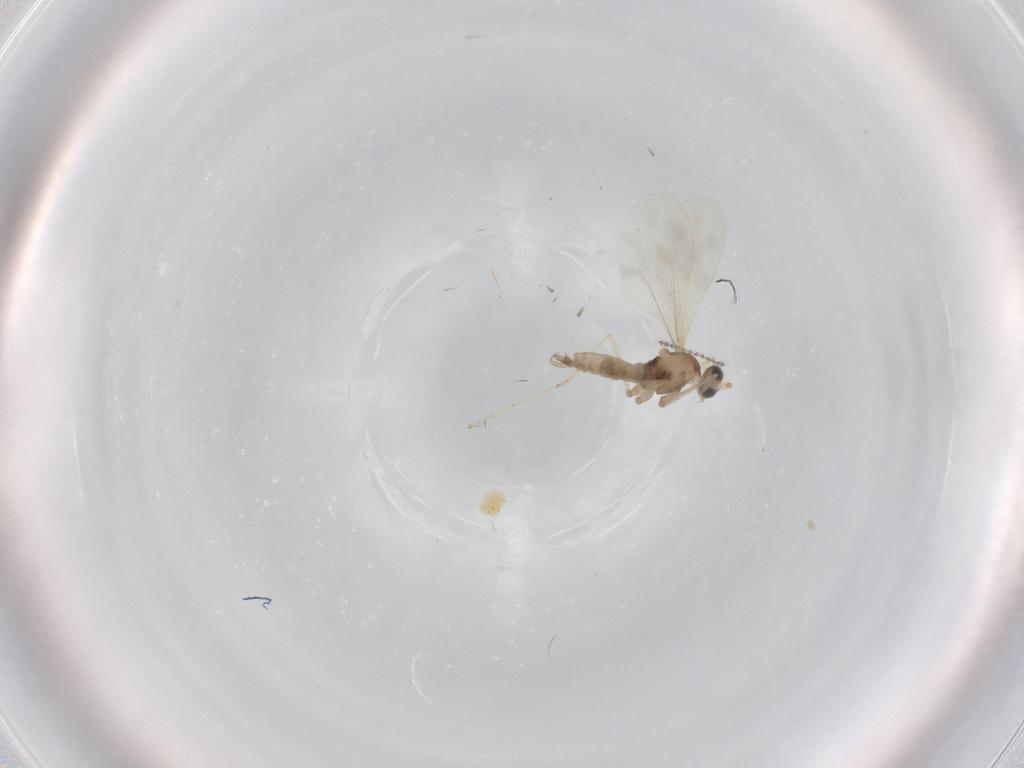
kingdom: Animalia
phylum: Arthropoda
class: Insecta
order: Diptera
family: Cecidomyiidae
